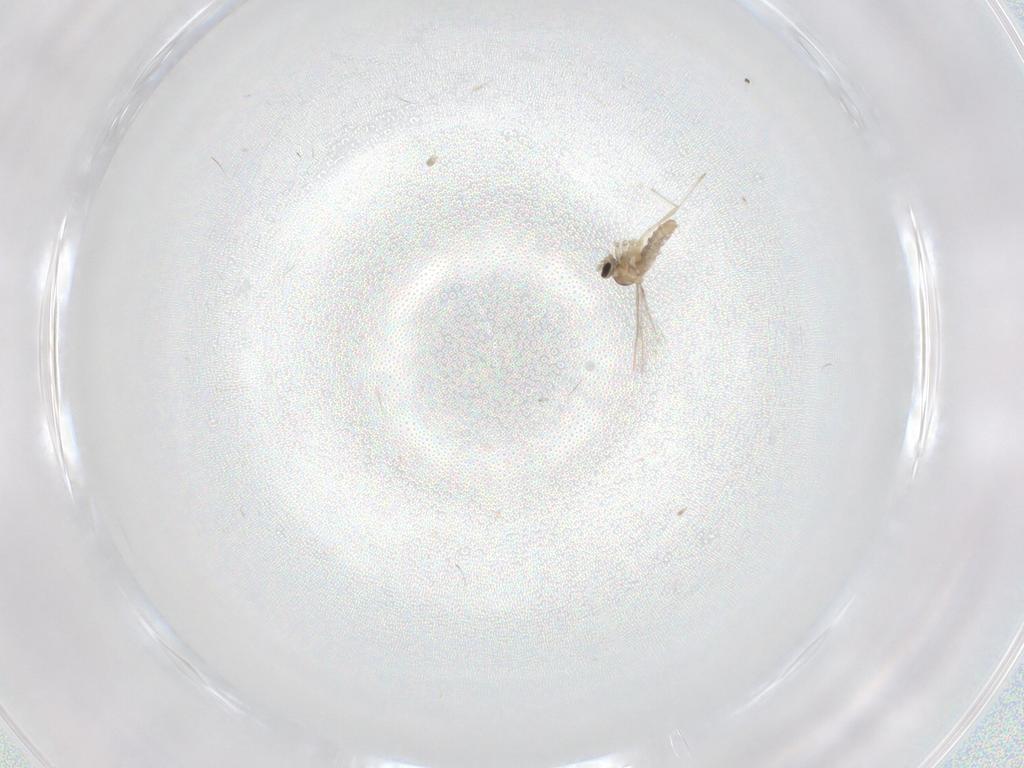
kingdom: Animalia
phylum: Arthropoda
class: Insecta
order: Diptera
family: Cecidomyiidae
